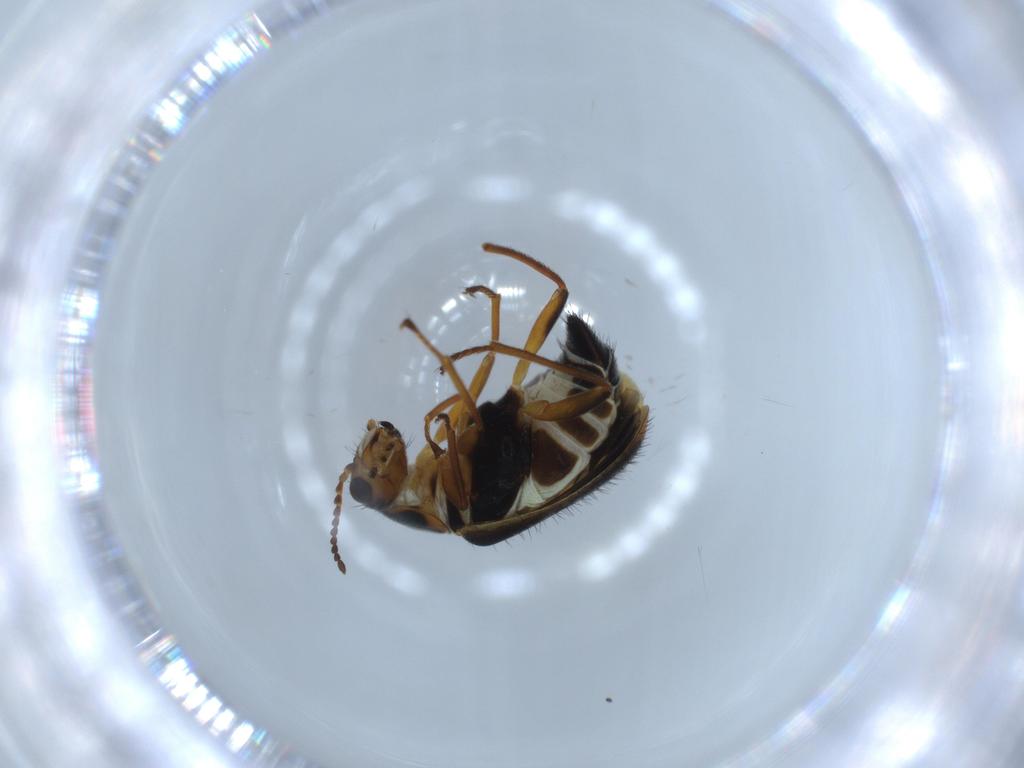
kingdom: Animalia
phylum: Arthropoda
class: Insecta
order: Coleoptera
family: Melyridae
